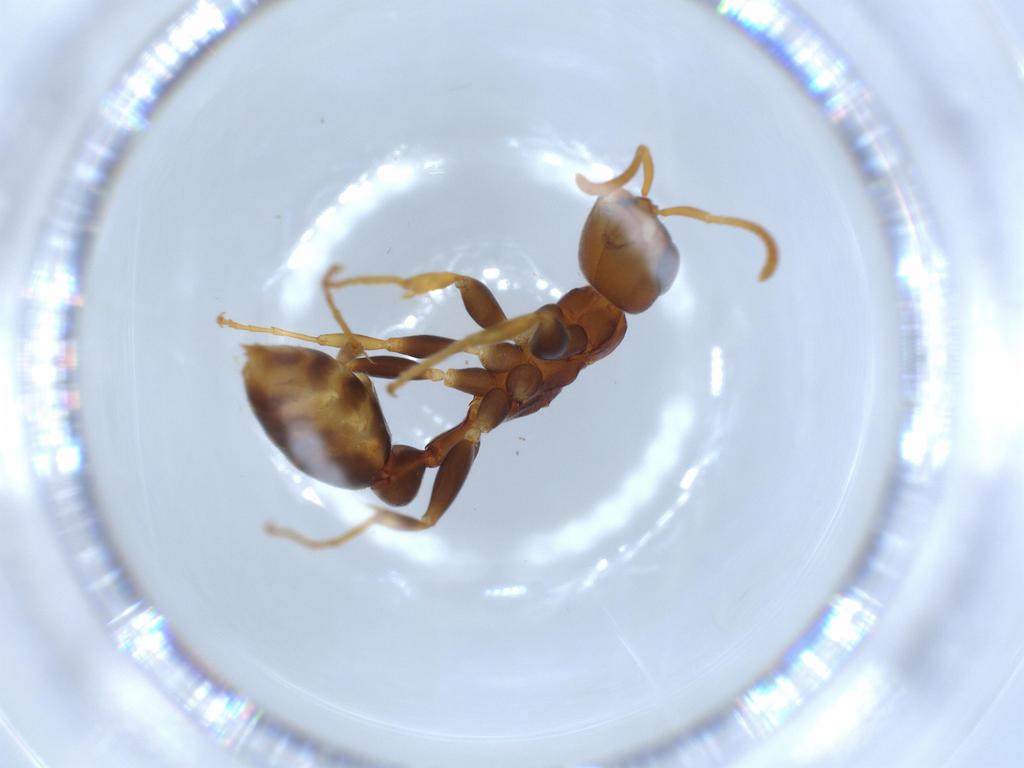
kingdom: Animalia
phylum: Arthropoda
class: Insecta
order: Hymenoptera
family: Formicidae
